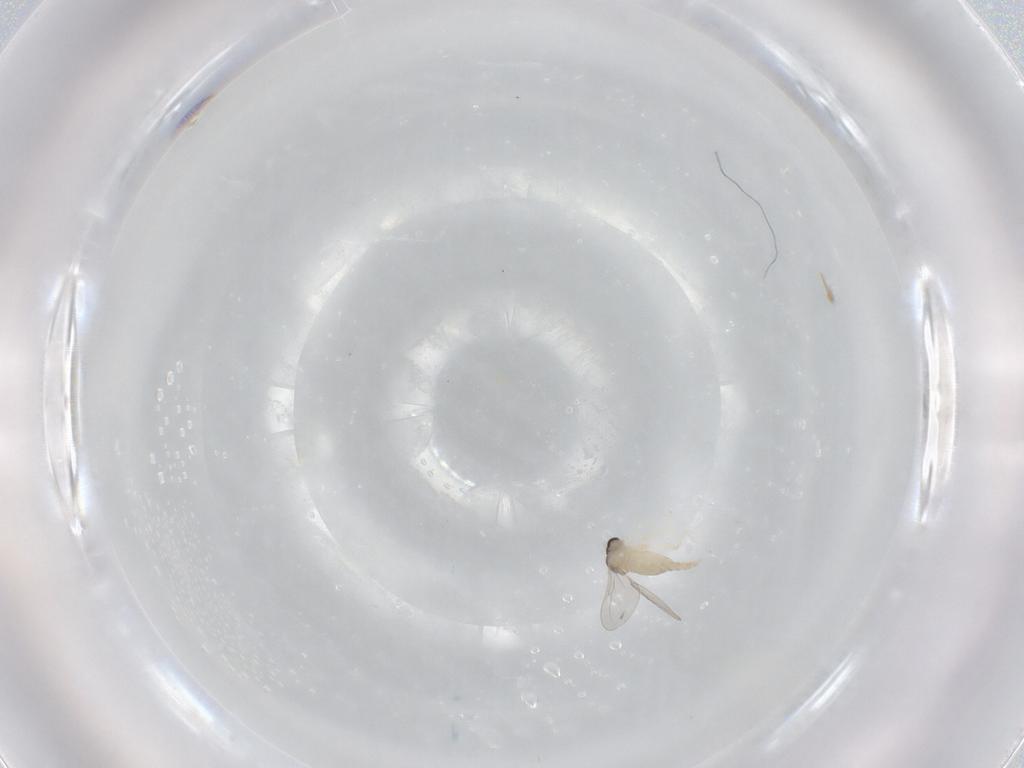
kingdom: Animalia
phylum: Arthropoda
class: Insecta
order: Diptera
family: Cecidomyiidae
